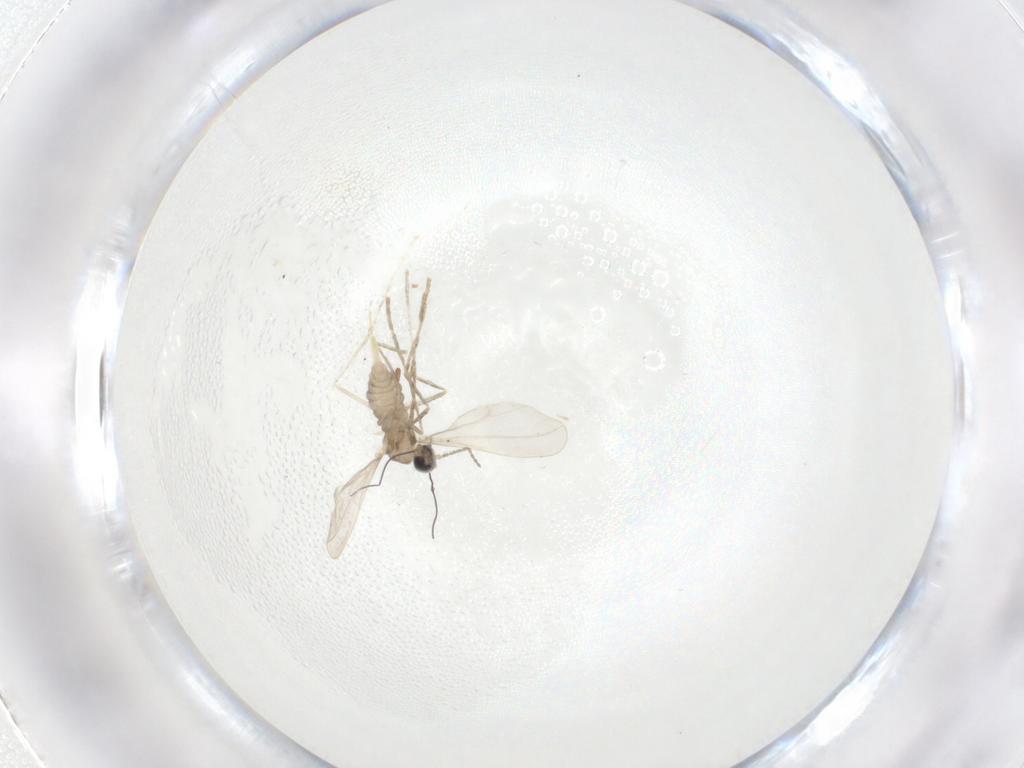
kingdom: Animalia
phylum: Arthropoda
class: Insecta
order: Diptera
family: Cecidomyiidae
